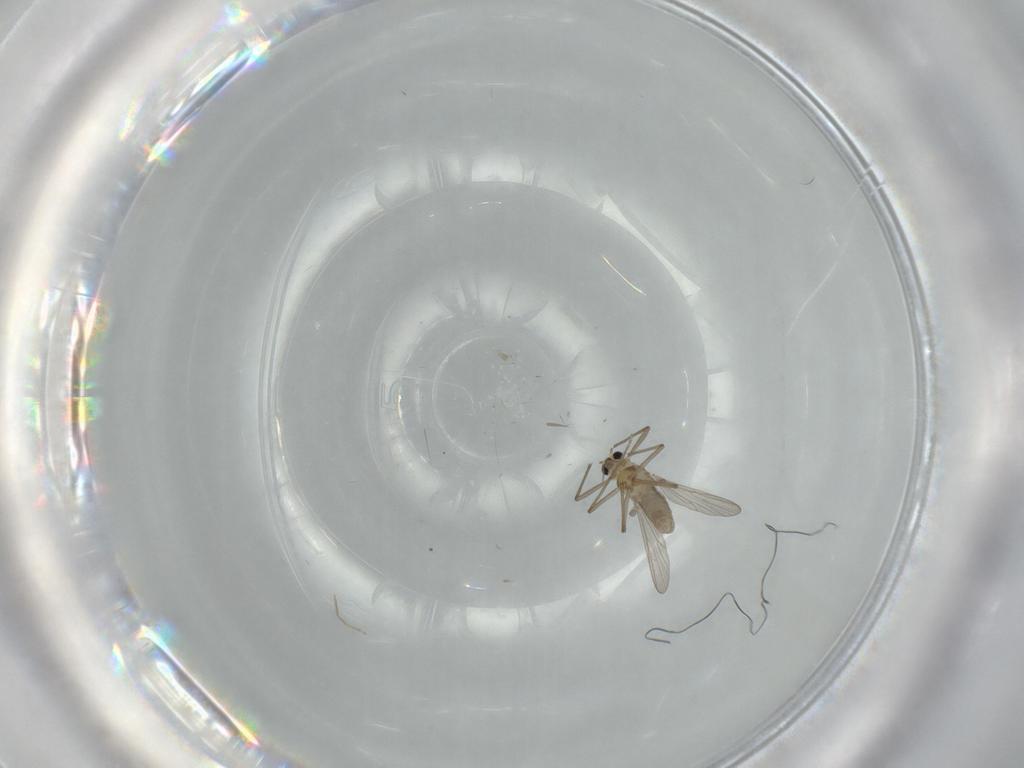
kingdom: Animalia
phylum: Arthropoda
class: Insecta
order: Diptera
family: Chironomidae
